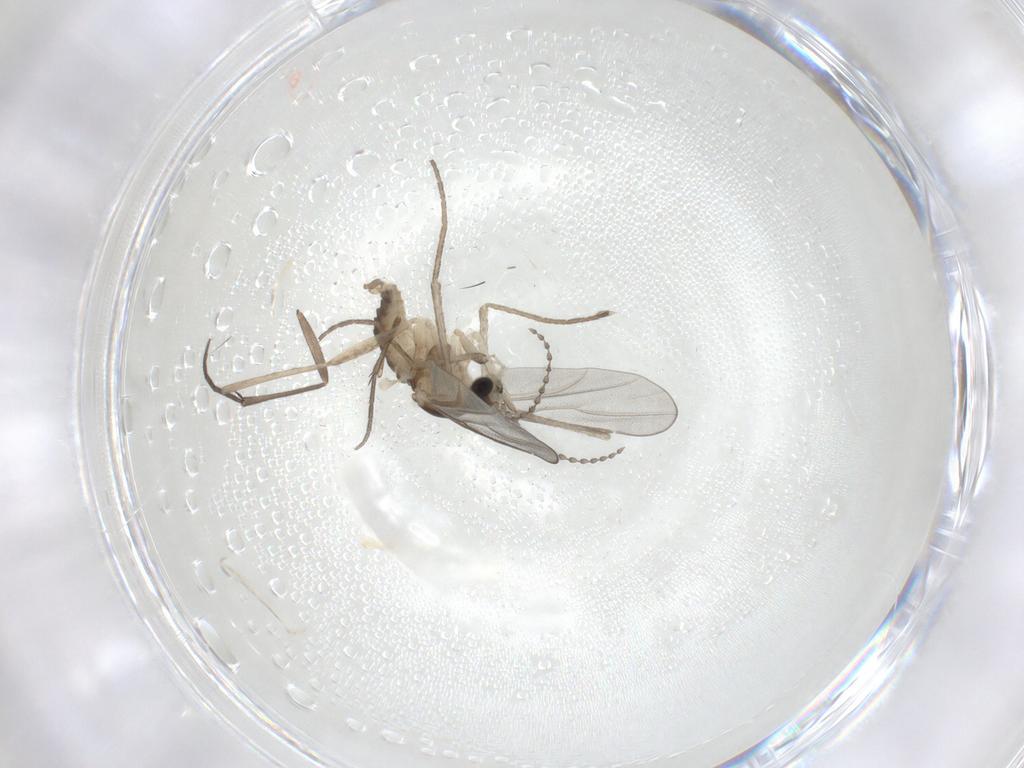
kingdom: Animalia
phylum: Arthropoda
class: Insecta
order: Diptera
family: Cecidomyiidae
